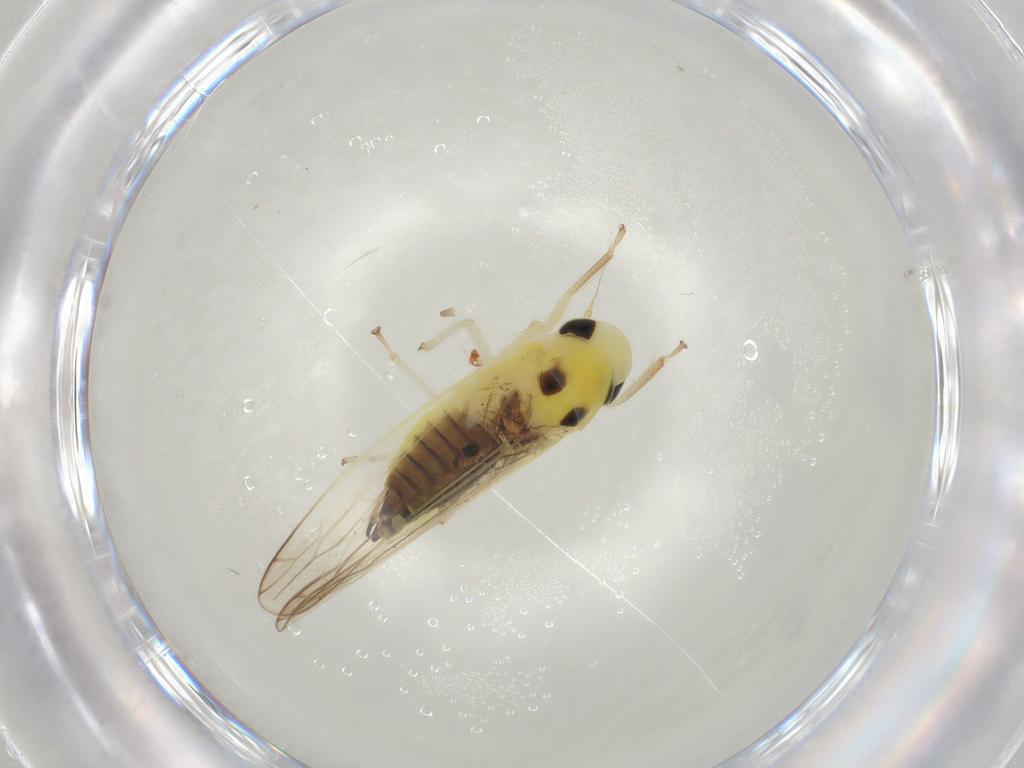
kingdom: Animalia
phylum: Arthropoda
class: Insecta
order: Hemiptera
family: Cicadellidae
